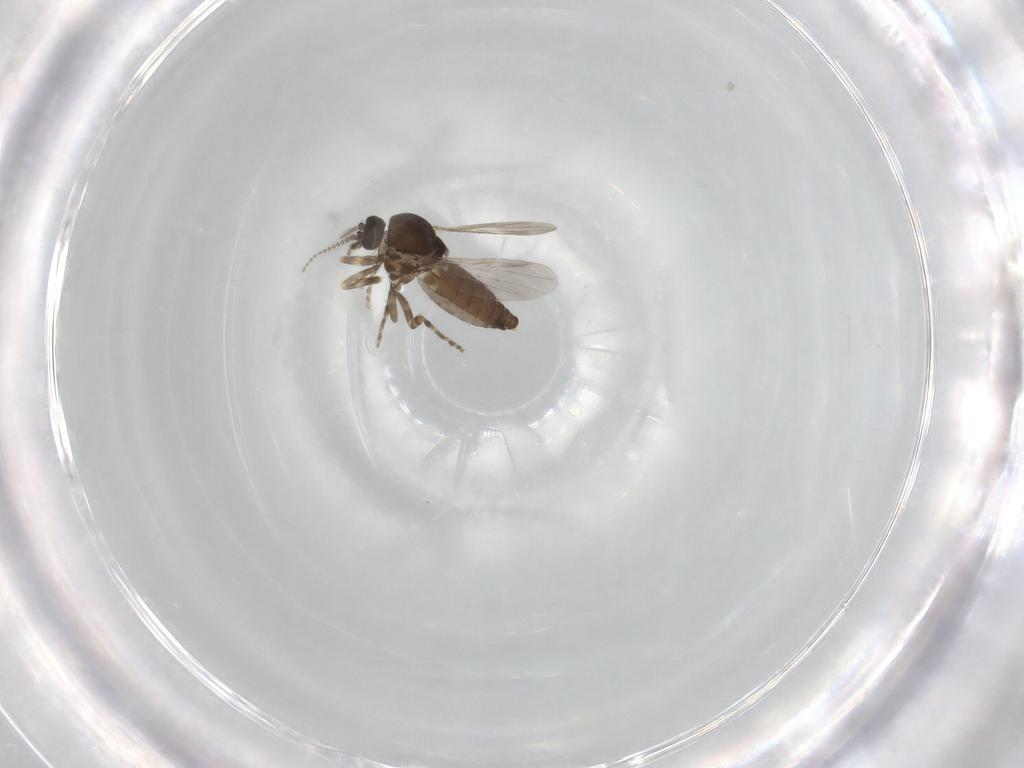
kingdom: Animalia
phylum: Arthropoda
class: Insecta
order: Diptera
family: Ceratopogonidae
